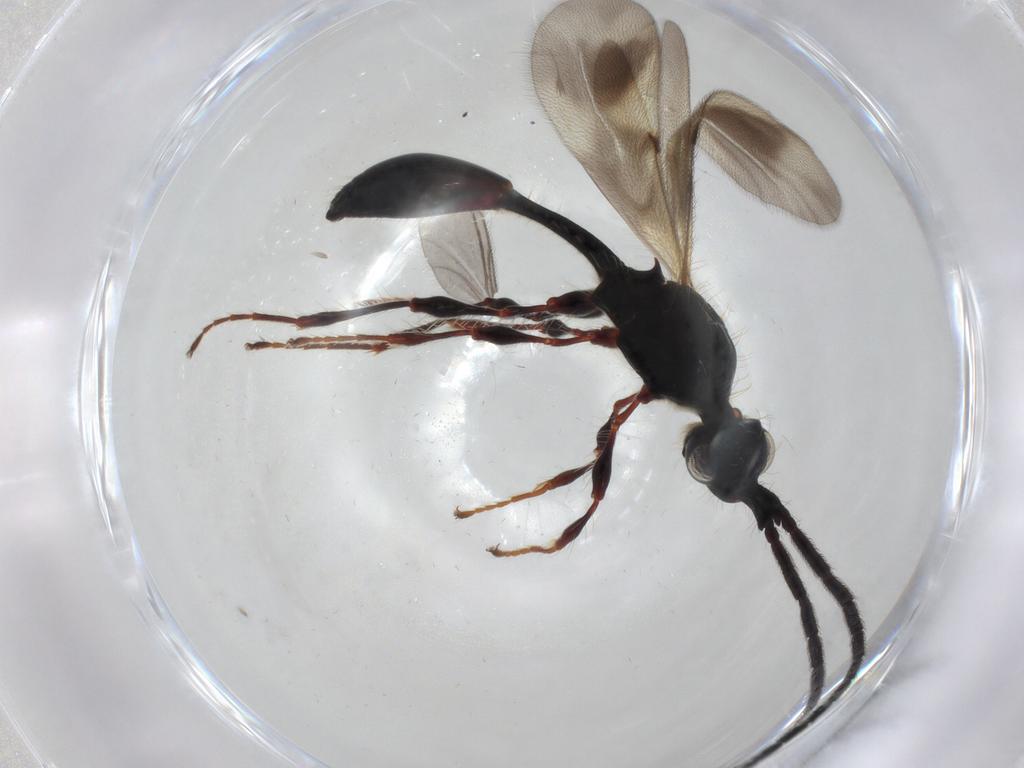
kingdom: Animalia
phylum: Arthropoda
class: Insecta
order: Hymenoptera
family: Diapriidae
